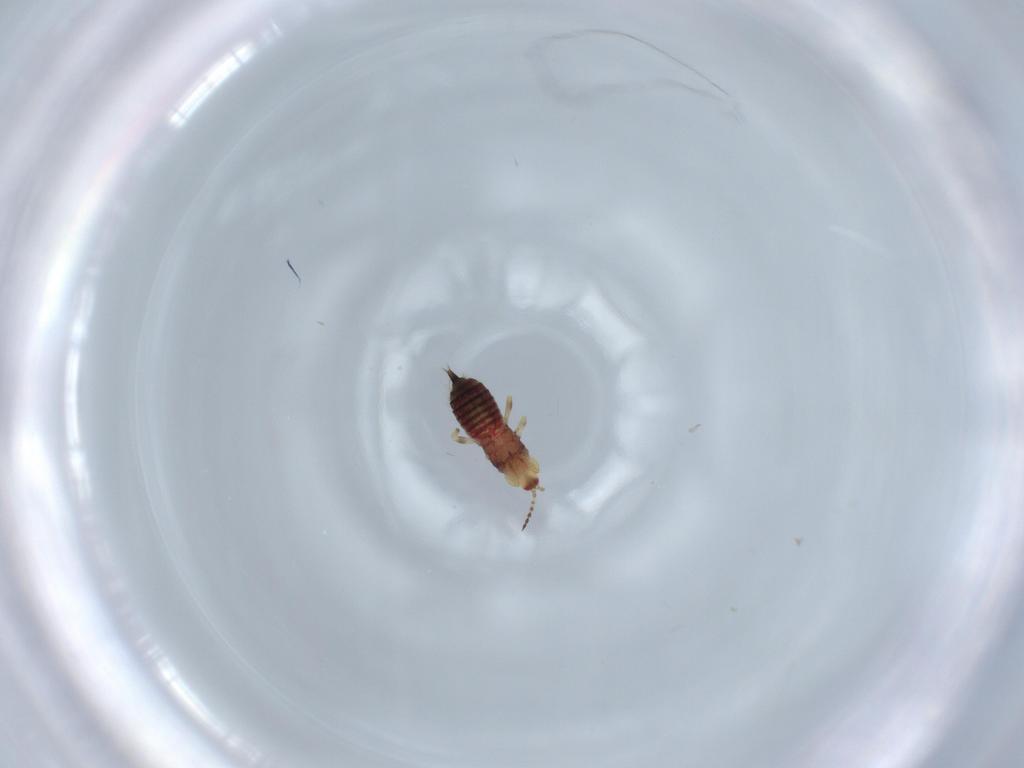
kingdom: Animalia
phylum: Arthropoda
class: Insecta
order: Thysanoptera
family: Phlaeothripidae
